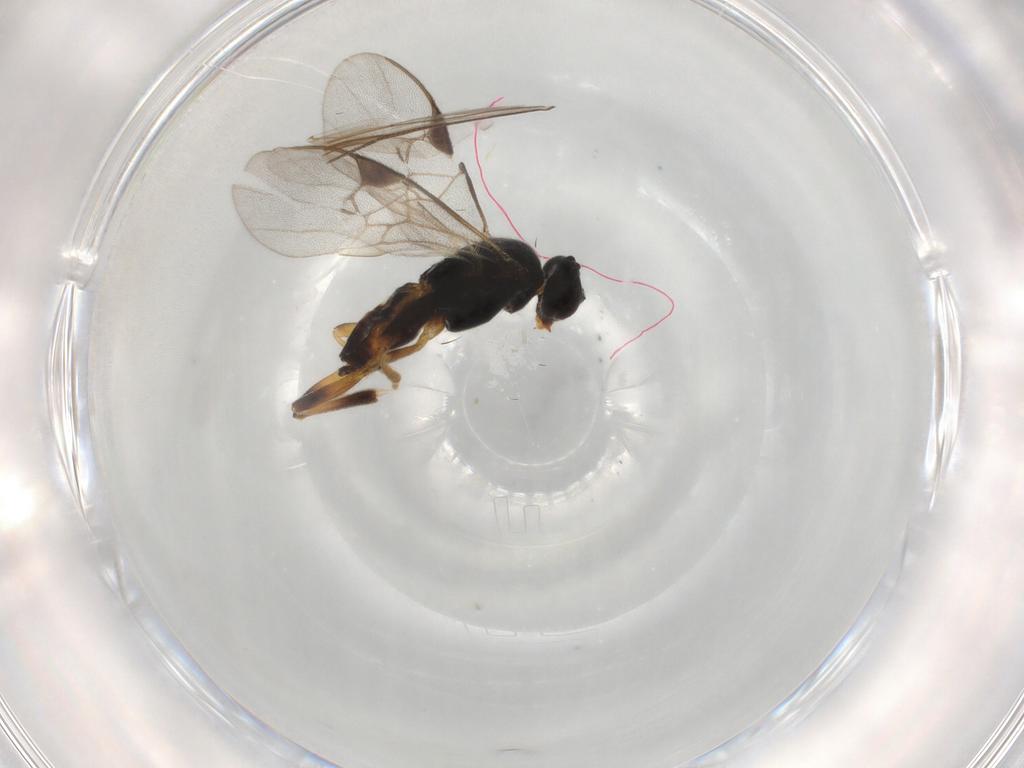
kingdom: Animalia
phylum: Arthropoda
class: Insecta
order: Hymenoptera
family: Braconidae
